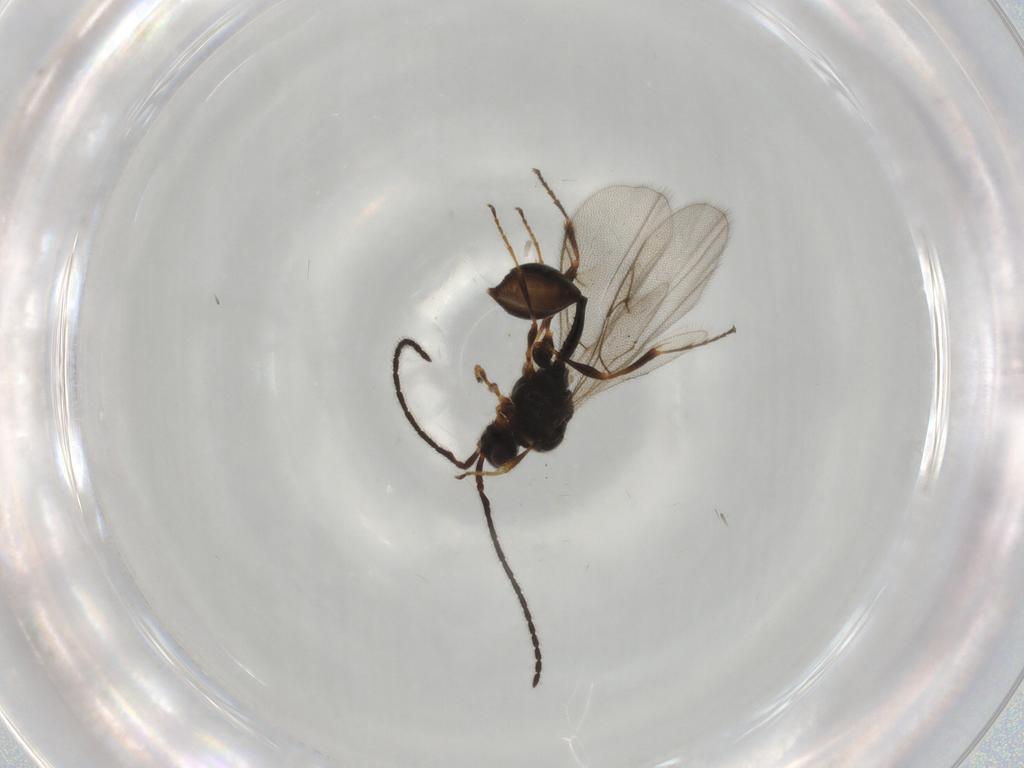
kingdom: Animalia
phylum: Arthropoda
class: Insecta
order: Hymenoptera
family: Diapriidae
